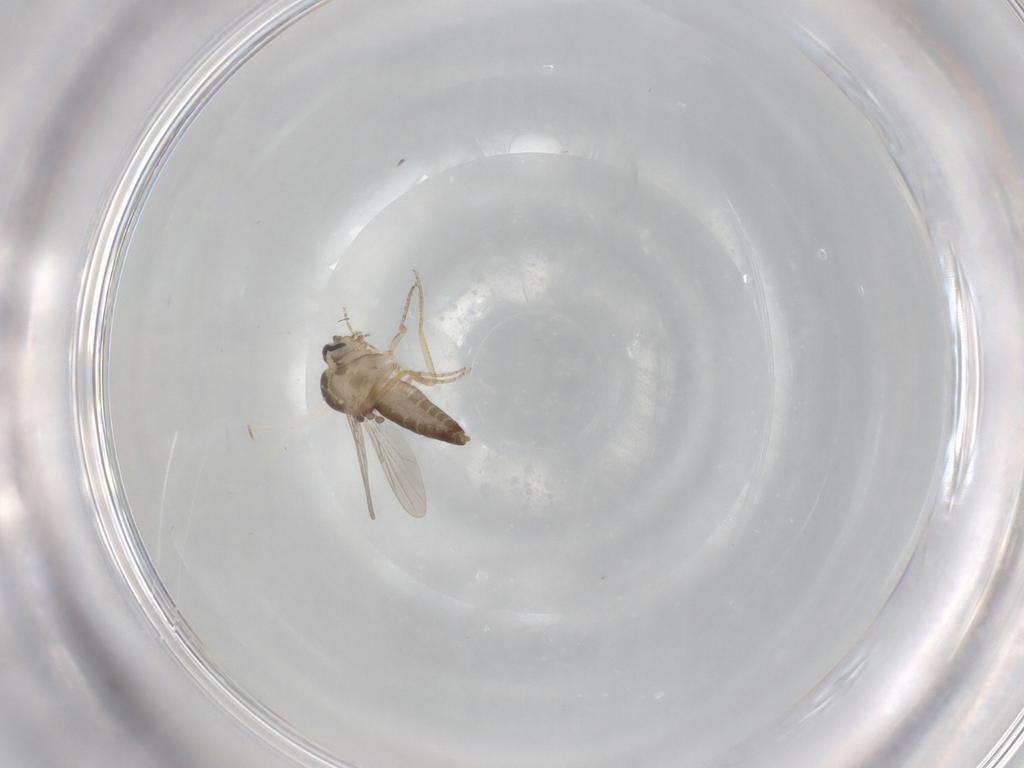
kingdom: Animalia
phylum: Arthropoda
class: Insecta
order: Diptera
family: Ceratopogonidae
